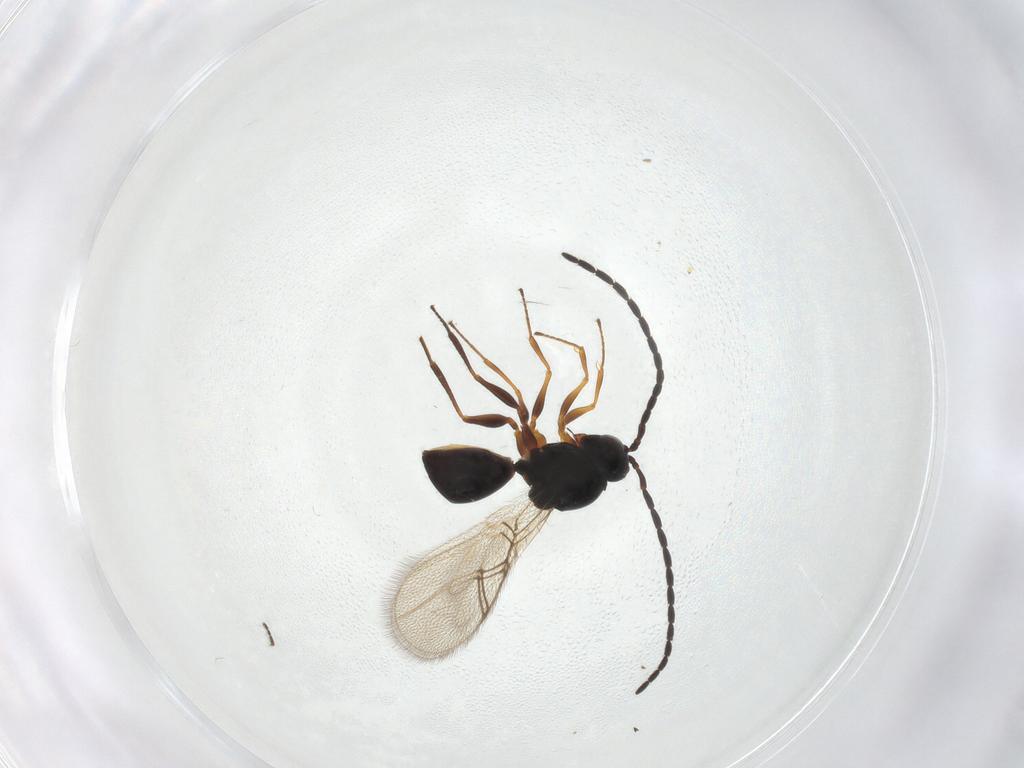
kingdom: Animalia
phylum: Arthropoda
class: Insecta
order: Hymenoptera
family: Figitidae
